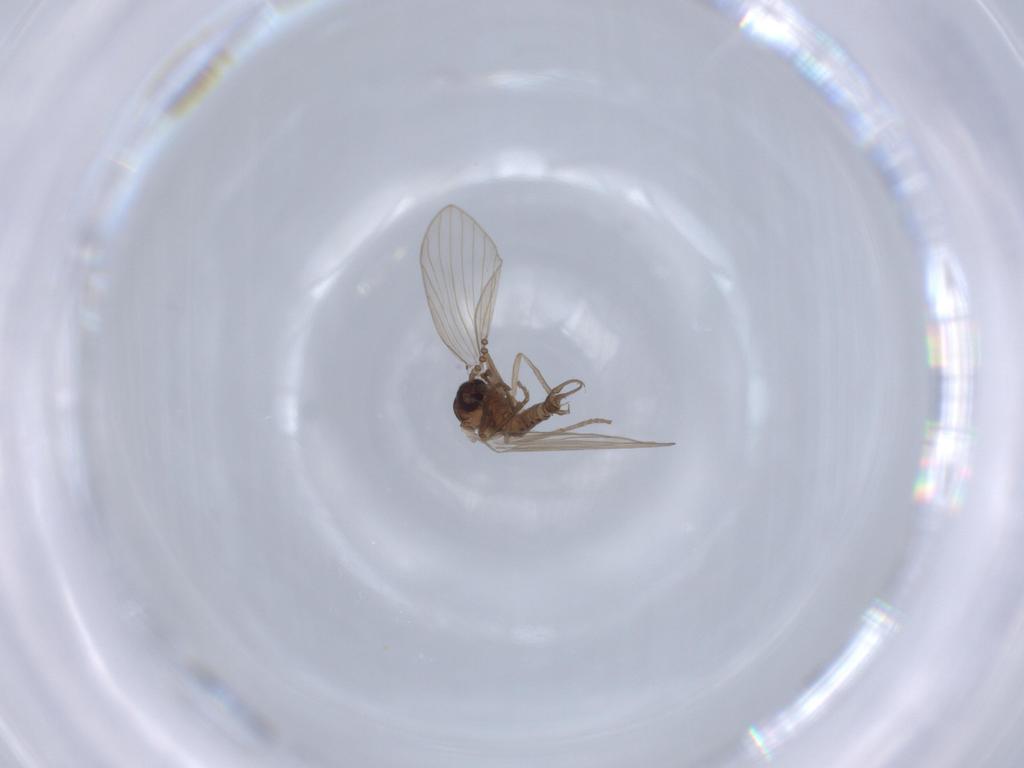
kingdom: Animalia
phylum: Arthropoda
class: Insecta
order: Diptera
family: Psychodidae
